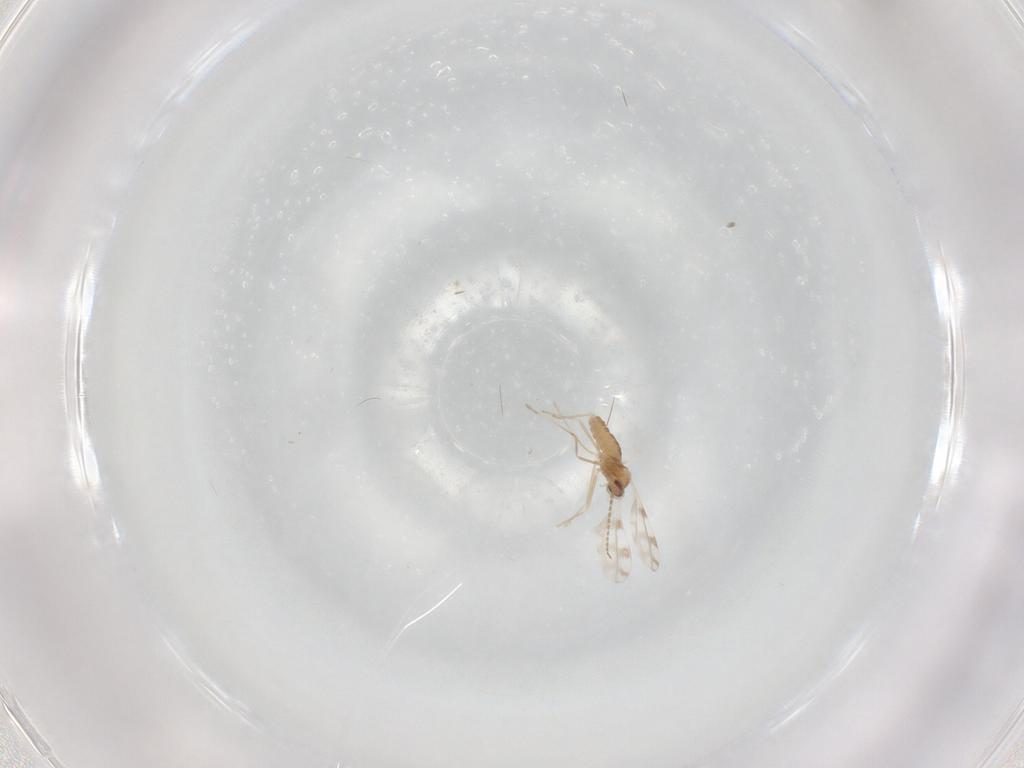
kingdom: Animalia
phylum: Arthropoda
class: Insecta
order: Diptera
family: Cecidomyiidae
